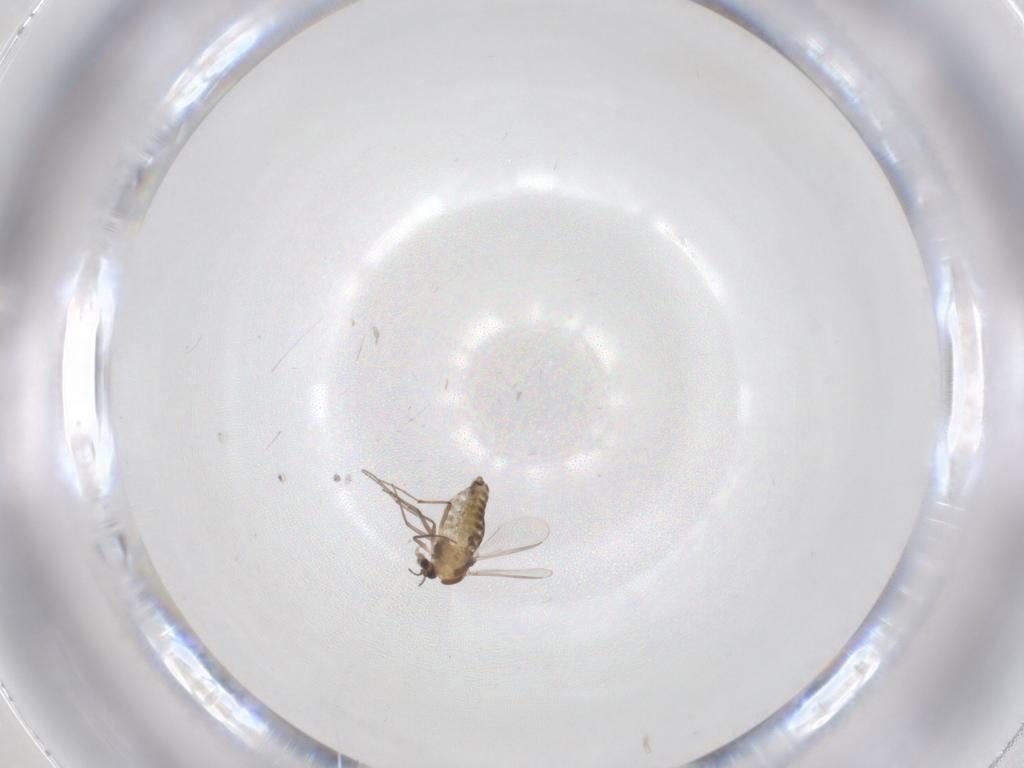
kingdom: Animalia
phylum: Arthropoda
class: Insecta
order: Diptera
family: Chironomidae
